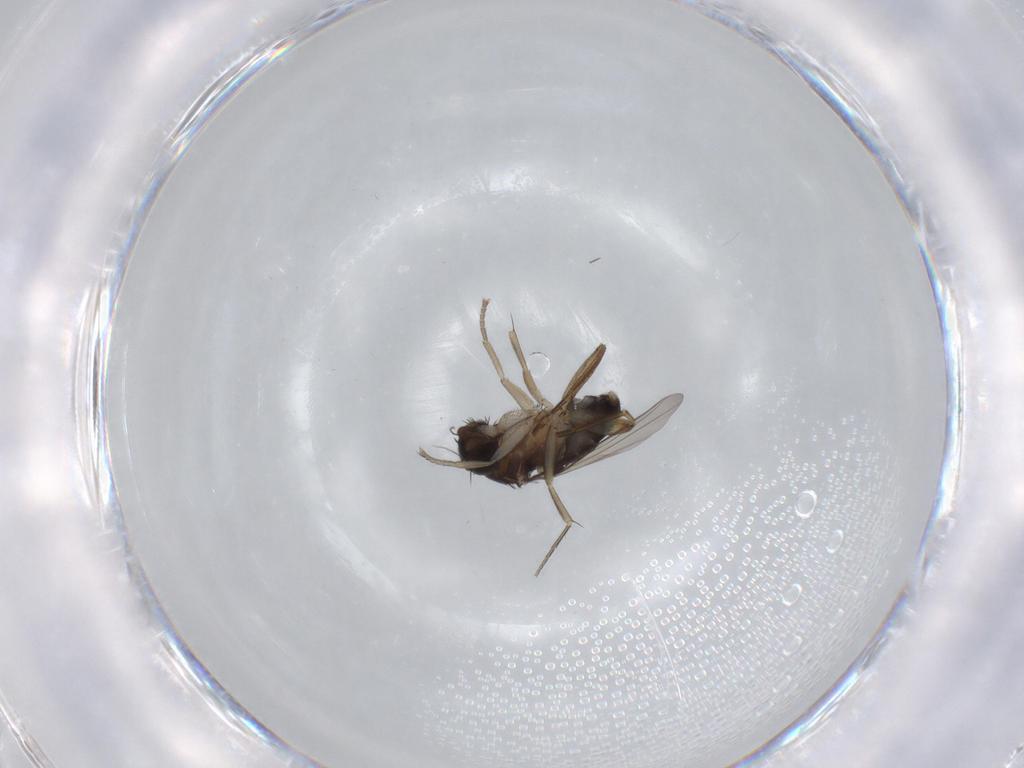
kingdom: Animalia
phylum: Arthropoda
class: Insecta
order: Diptera
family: Phoridae
